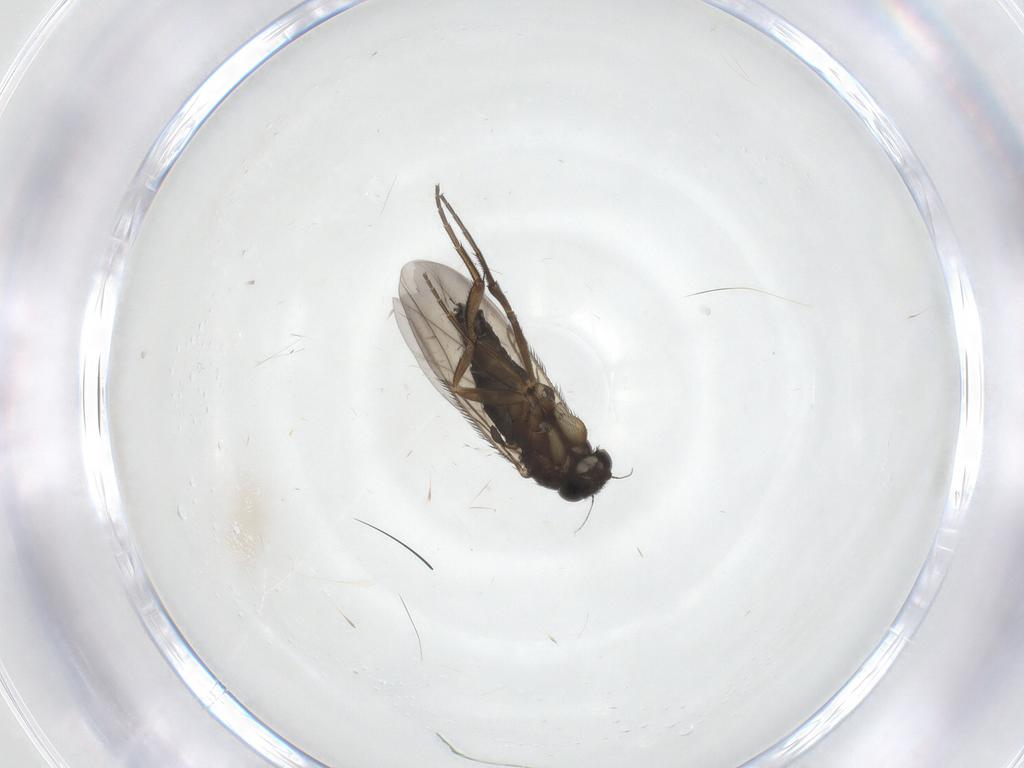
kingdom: Animalia
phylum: Arthropoda
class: Insecta
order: Diptera
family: Phoridae
